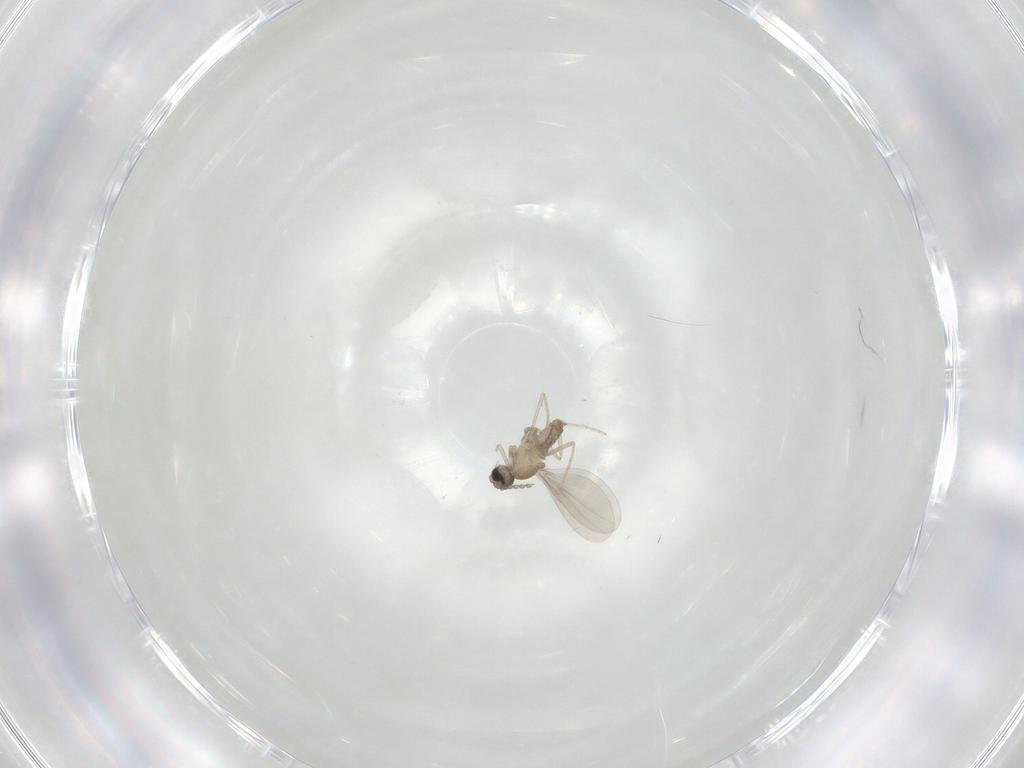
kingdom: Animalia
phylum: Arthropoda
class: Insecta
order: Diptera
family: Cecidomyiidae
